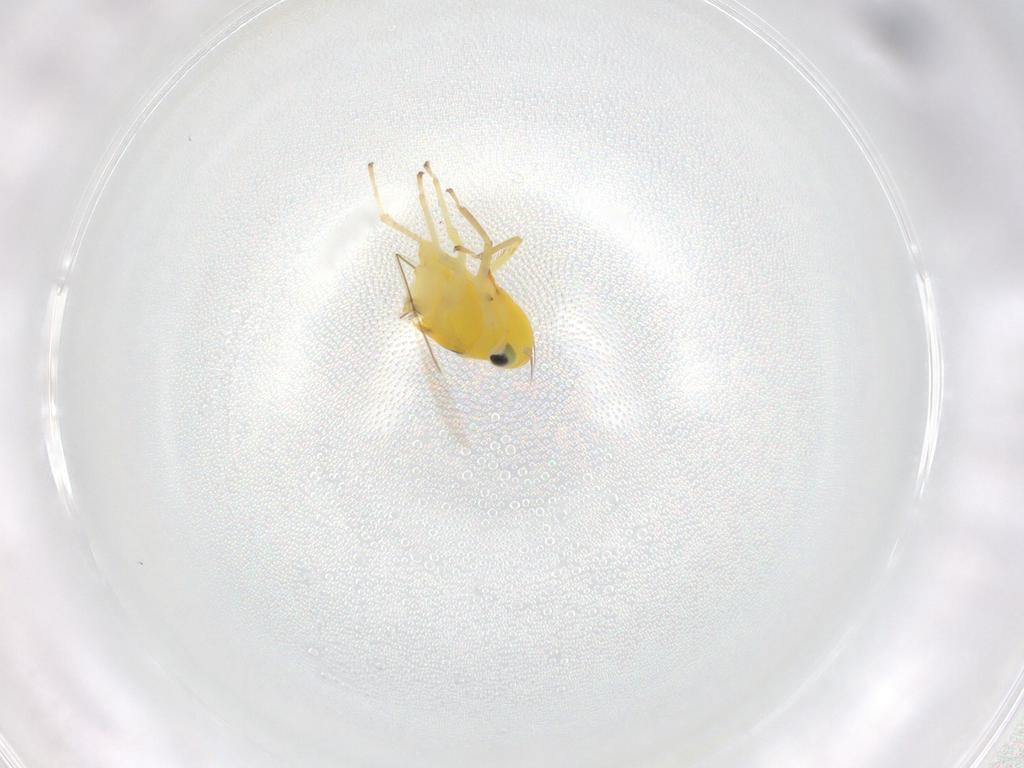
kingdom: Animalia
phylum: Arthropoda
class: Insecta
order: Hemiptera
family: Cicadellidae
